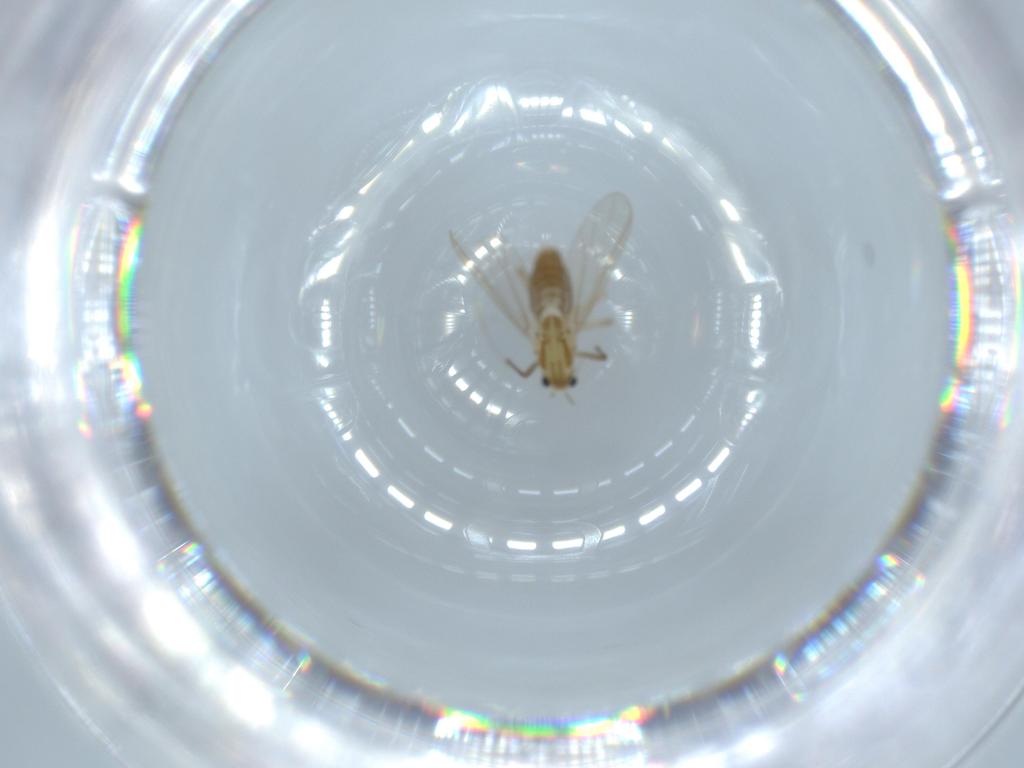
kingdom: Animalia
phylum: Arthropoda
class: Insecta
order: Diptera
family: Chironomidae
